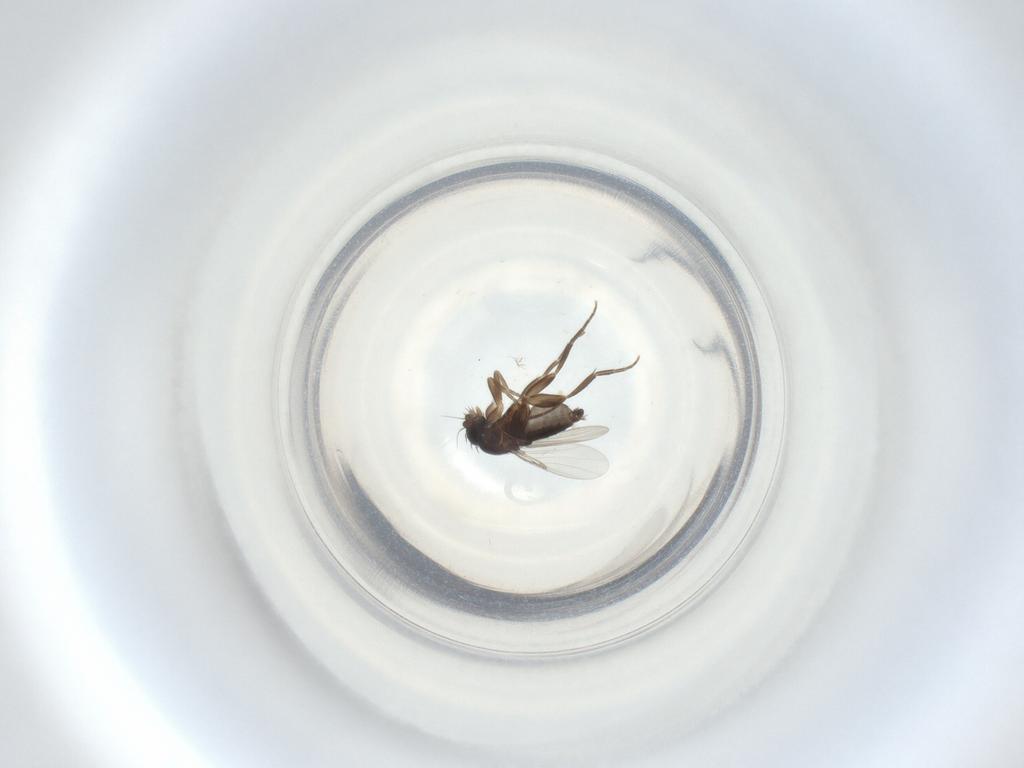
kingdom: Animalia
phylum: Arthropoda
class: Insecta
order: Diptera
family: Phoridae
